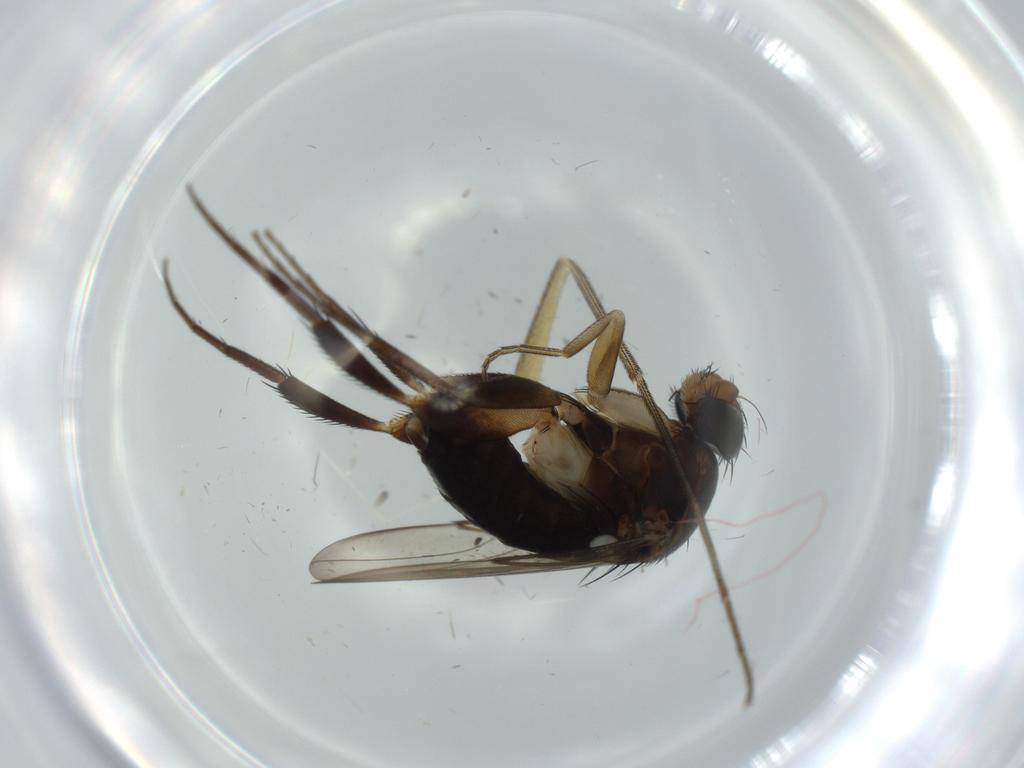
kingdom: Animalia
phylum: Arthropoda
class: Insecta
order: Diptera
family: Phoridae
